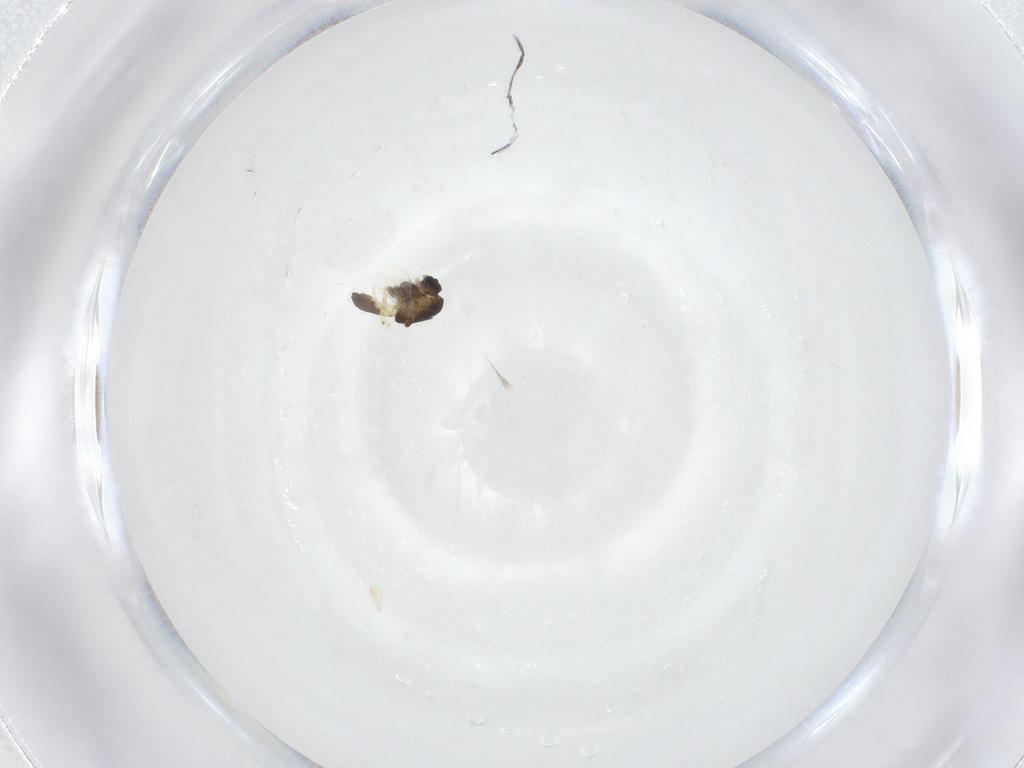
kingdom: Animalia
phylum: Arthropoda
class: Insecta
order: Diptera
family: Chironomidae
